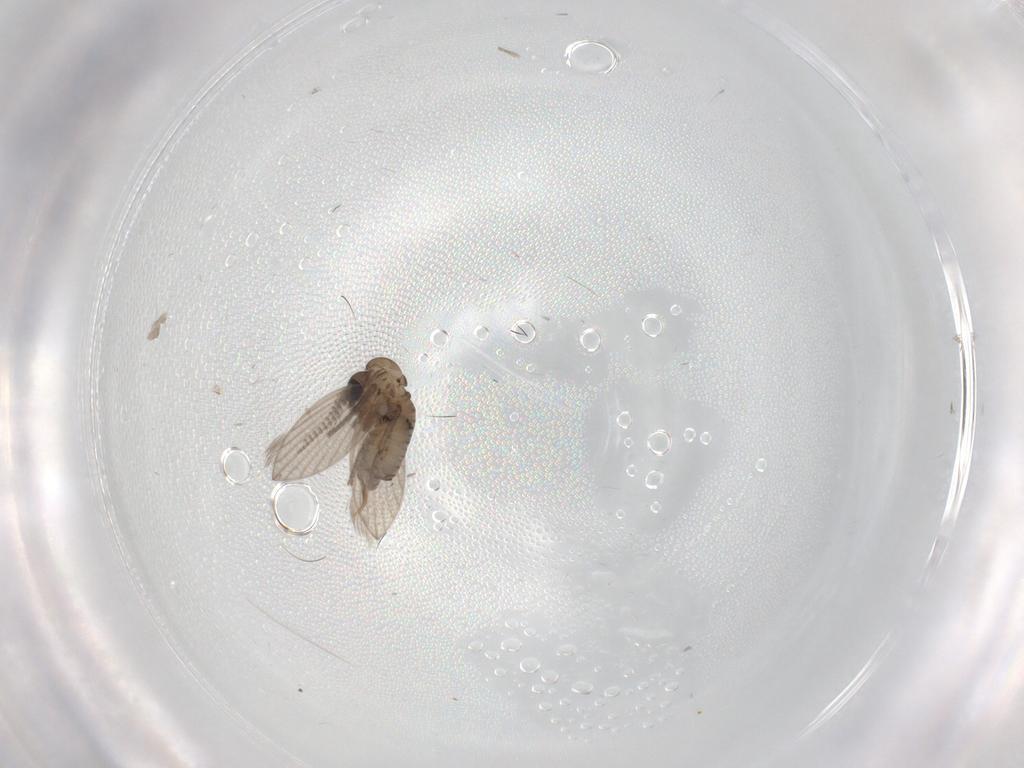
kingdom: Animalia
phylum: Arthropoda
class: Insecta
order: Diptera
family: Psychodidae
